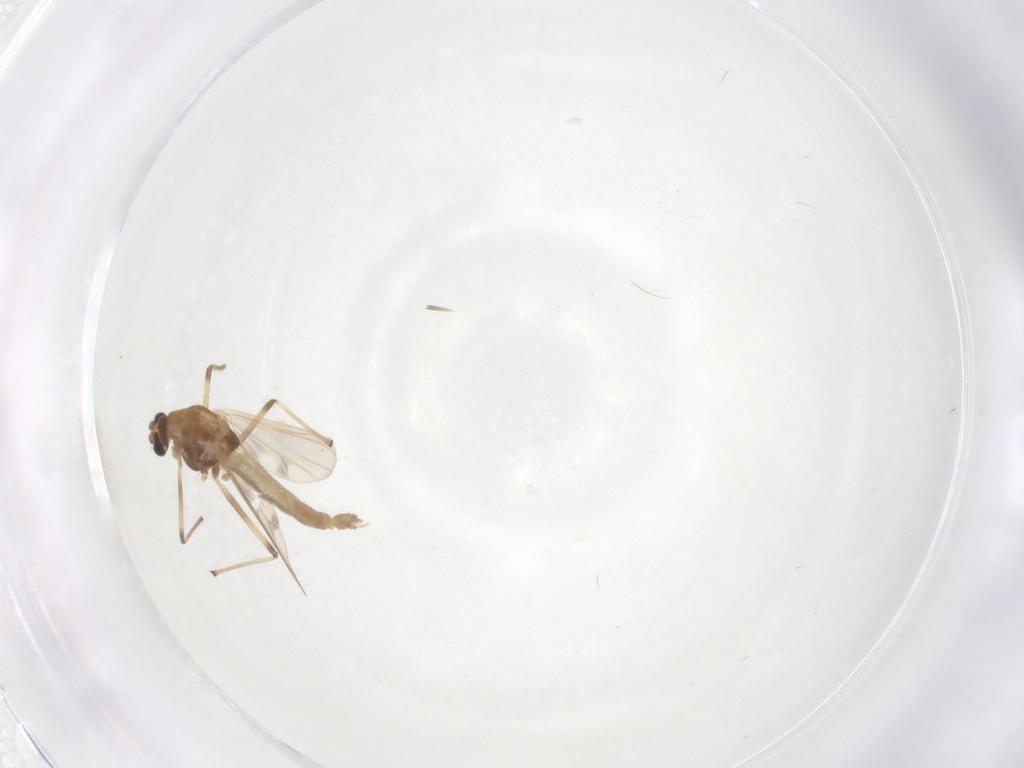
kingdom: Animalia
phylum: Arthropoda
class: Insecta
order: Diptera
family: Chironomidae
